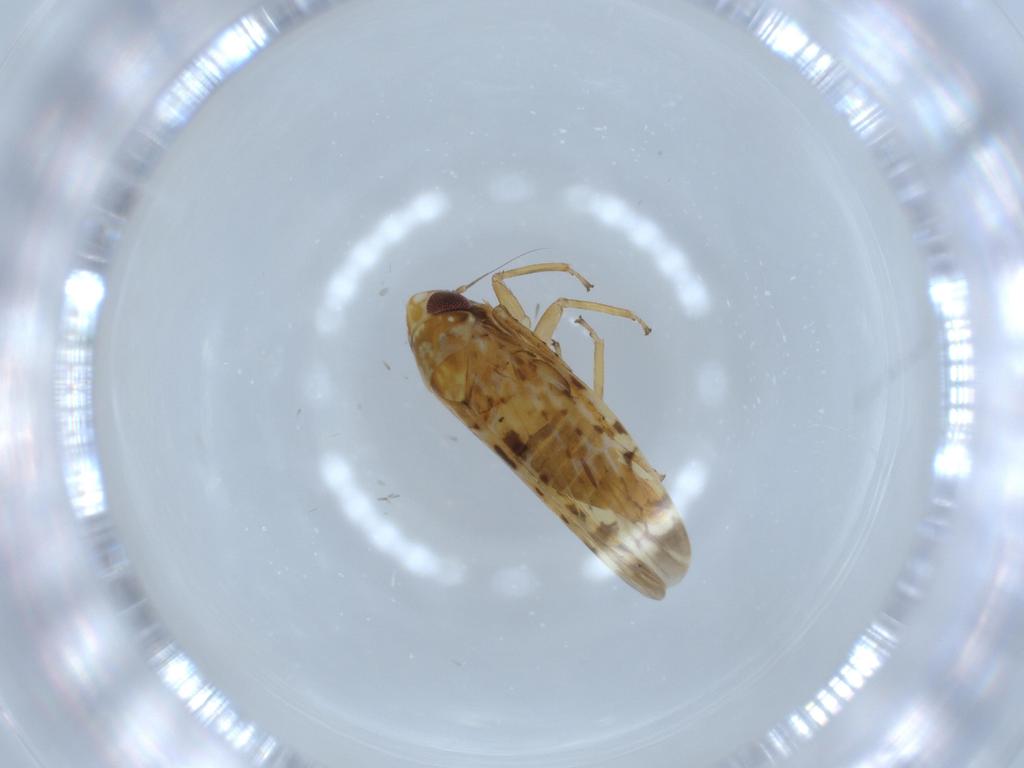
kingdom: Animalia
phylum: Arthropoda
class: Insecta
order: Hemiptera
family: Cicadellidae
